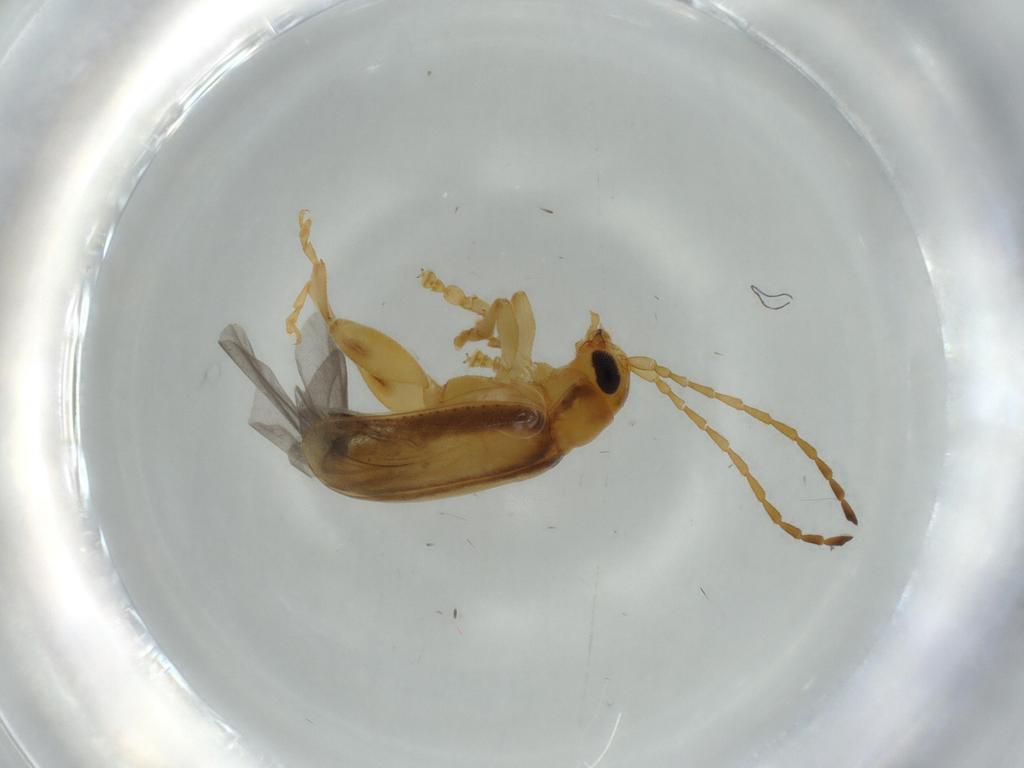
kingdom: Animalia
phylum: Arthropoda
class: Insecta
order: Coleoptera
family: Chrysomelidae
